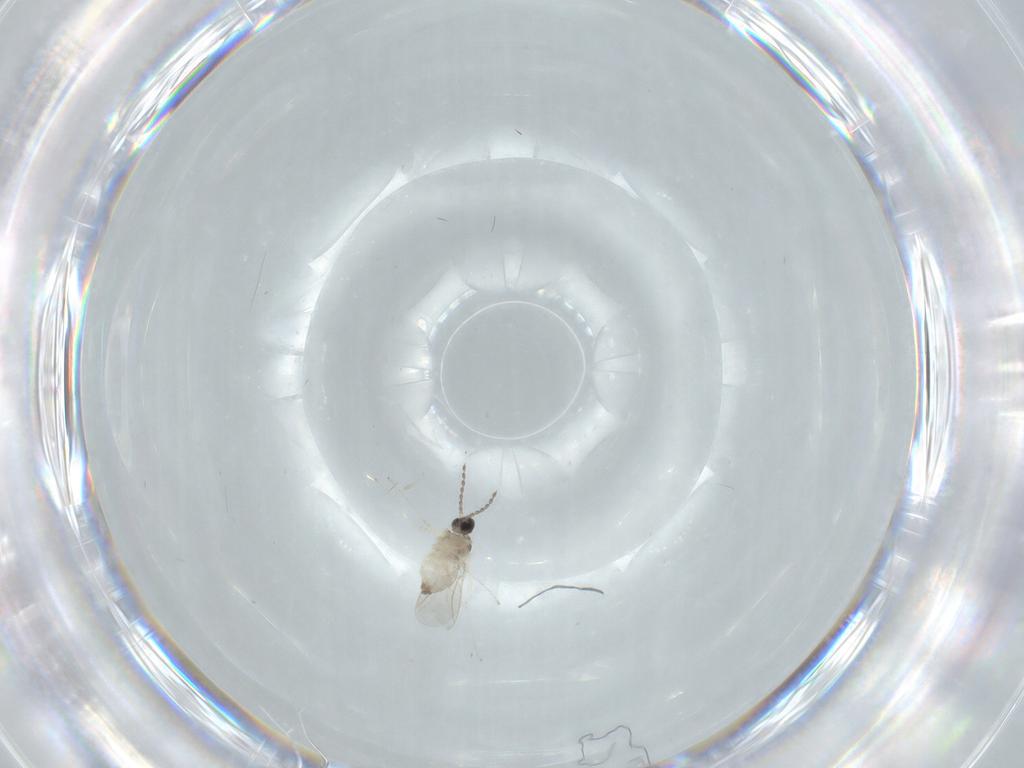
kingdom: Animalia
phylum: Arthropoda
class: Insecta
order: Diptera
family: Cecidomyiidae
